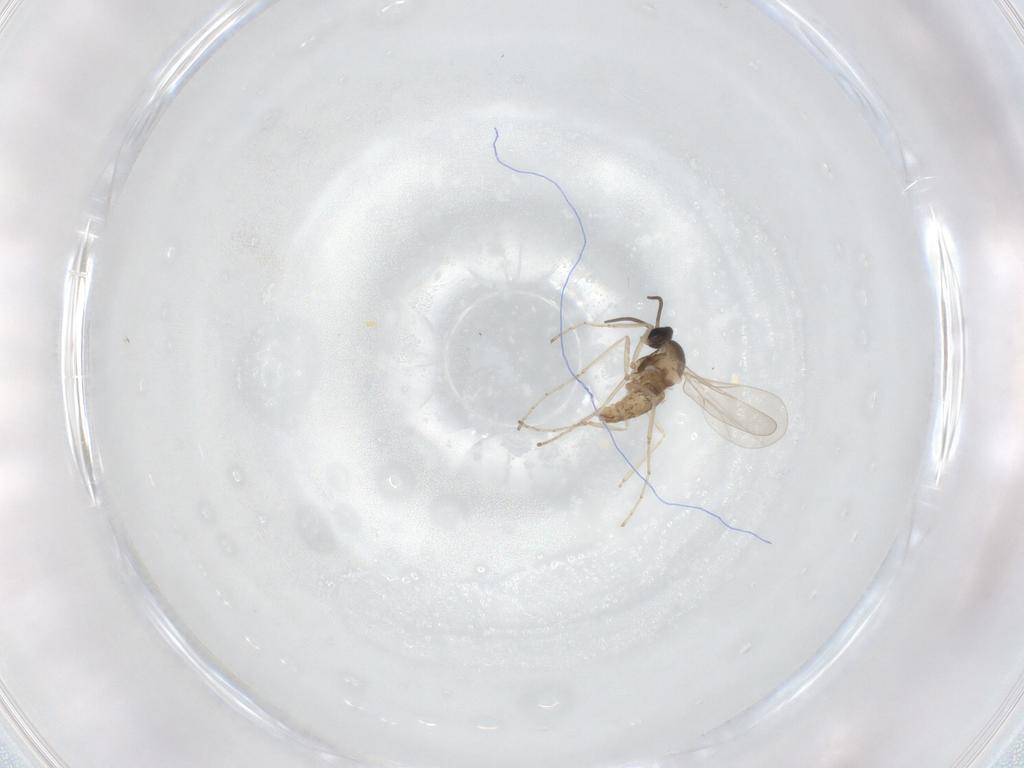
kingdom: Animalia
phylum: Arthropoda
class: Insecta
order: Diptera
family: Cecidomyiidae
